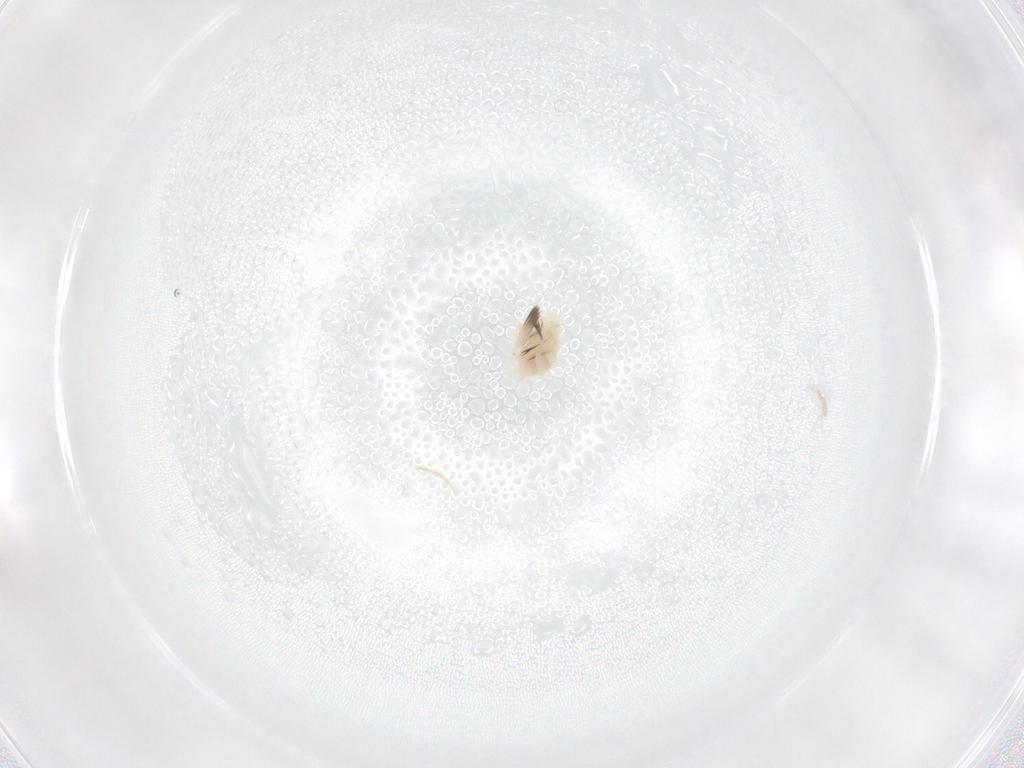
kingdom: Animalia
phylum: Arthropoda
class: Arachnida
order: Trombidiformes
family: Anystidae
